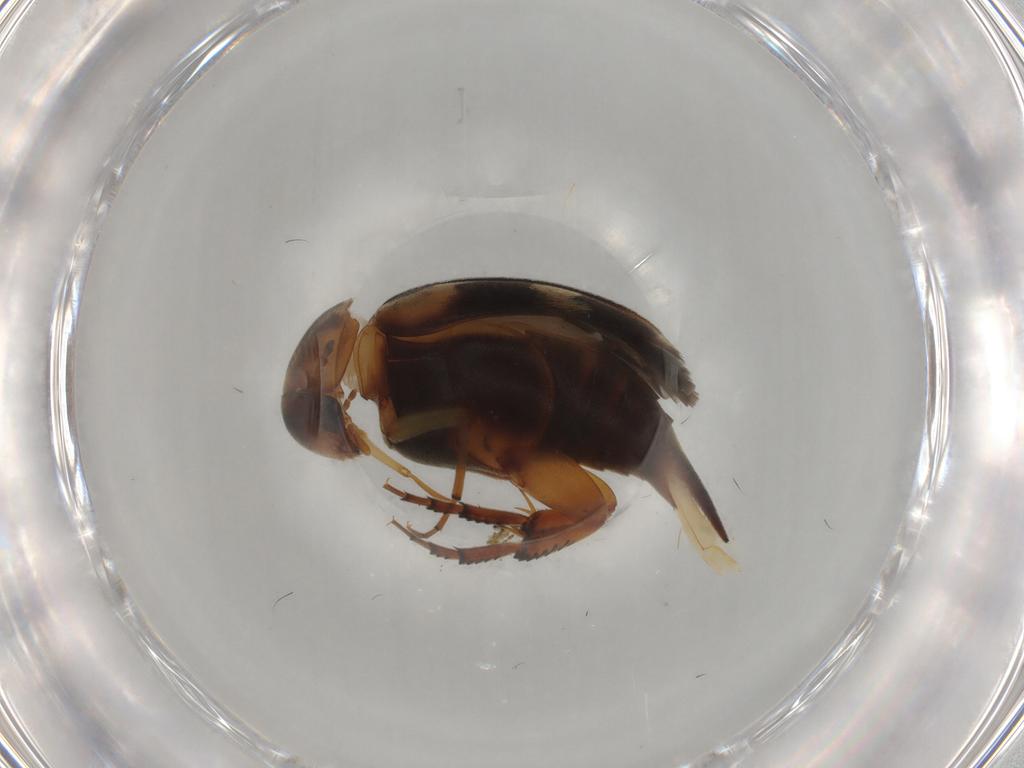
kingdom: Animalia
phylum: Arthropoda
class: Insecta
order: Coleoptera
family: Mordellidae
